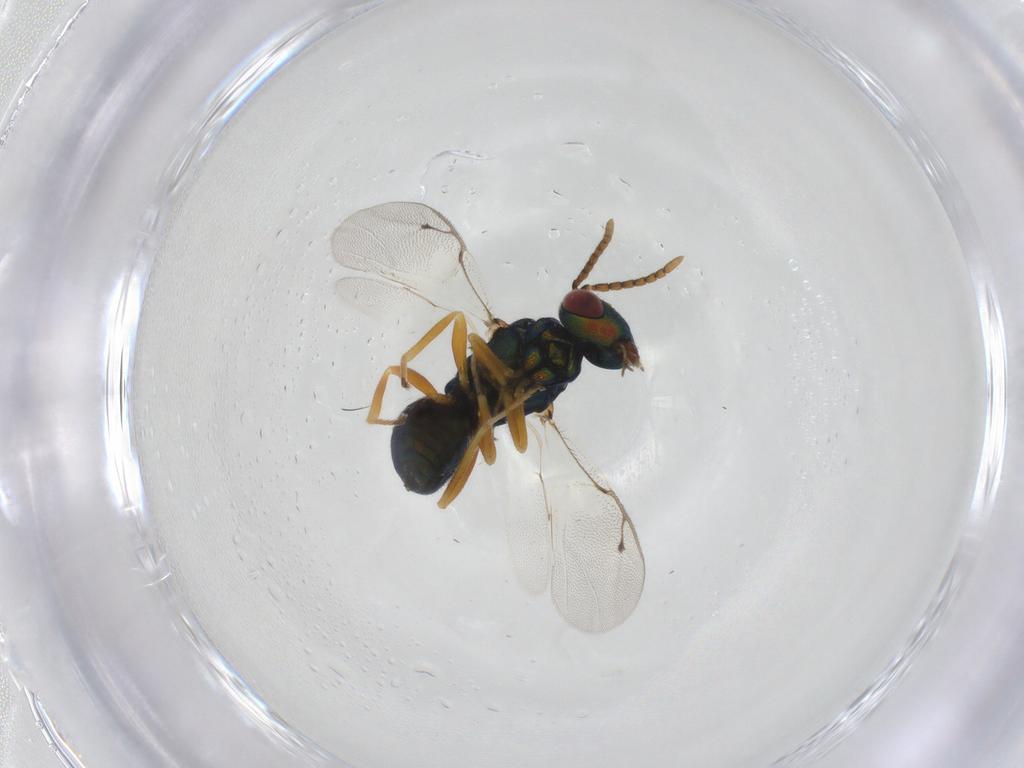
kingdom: Animalia
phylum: Arthropoda
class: Insecta
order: Hymenoptera
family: Pteromalidae
